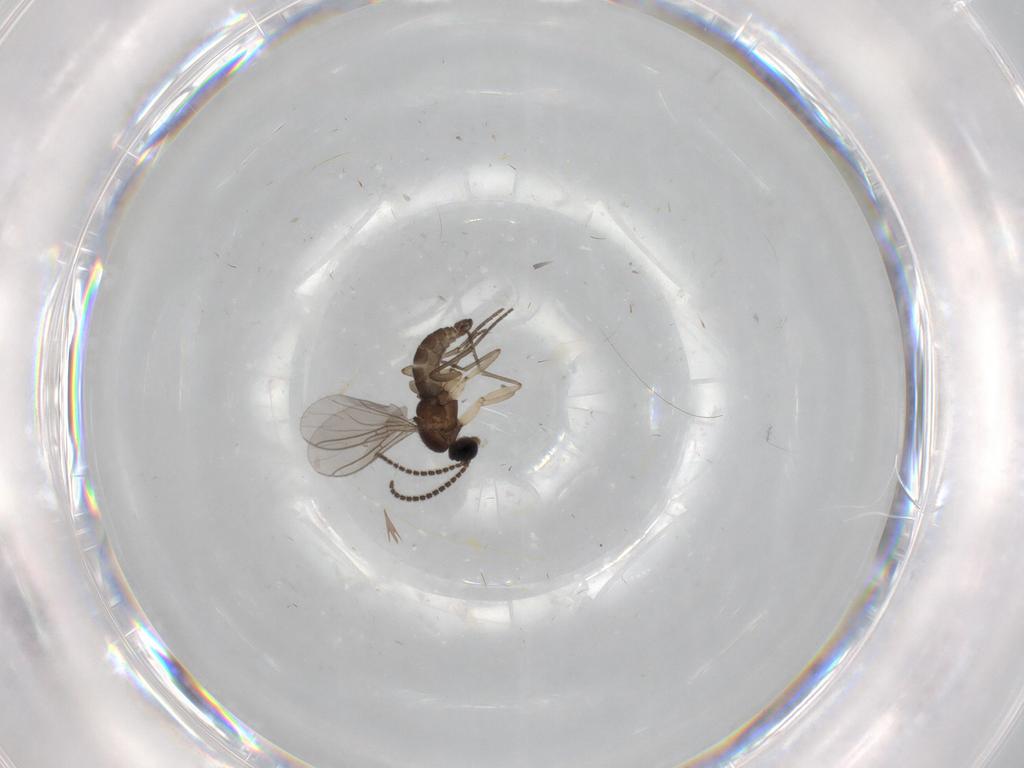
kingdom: Animalia
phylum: Arthropoda
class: Insecta
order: Diptera
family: Sciaridae
